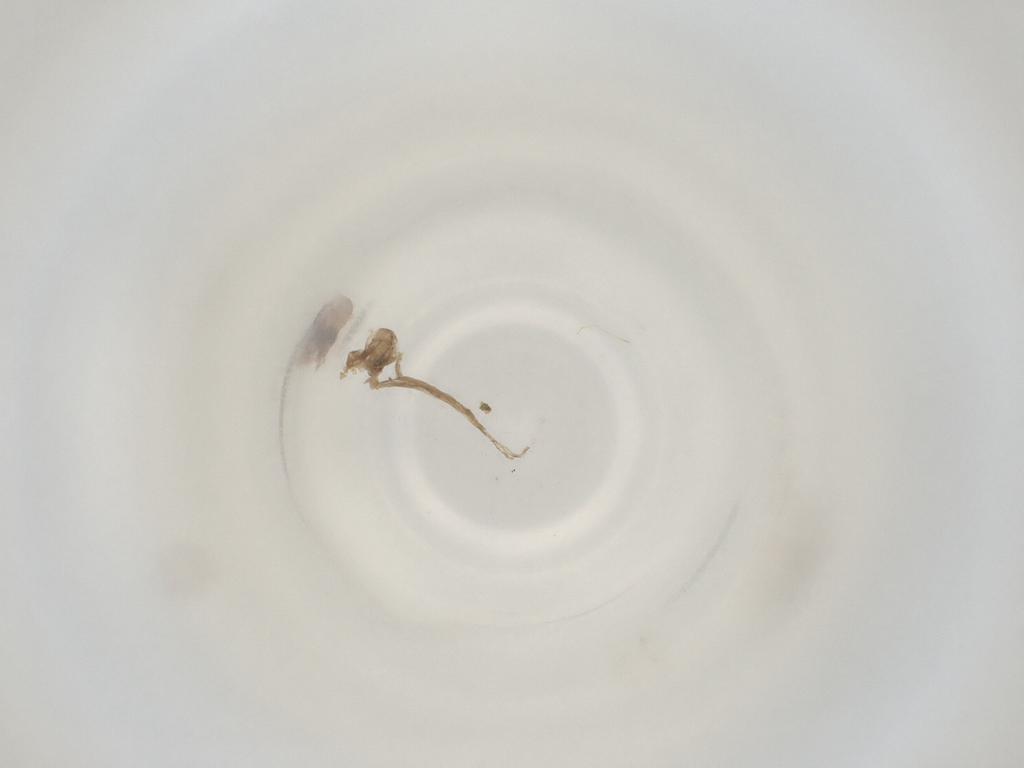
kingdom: Animalia
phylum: Arthropoda
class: Insecta
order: Diptera
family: Cecidomyiidae
